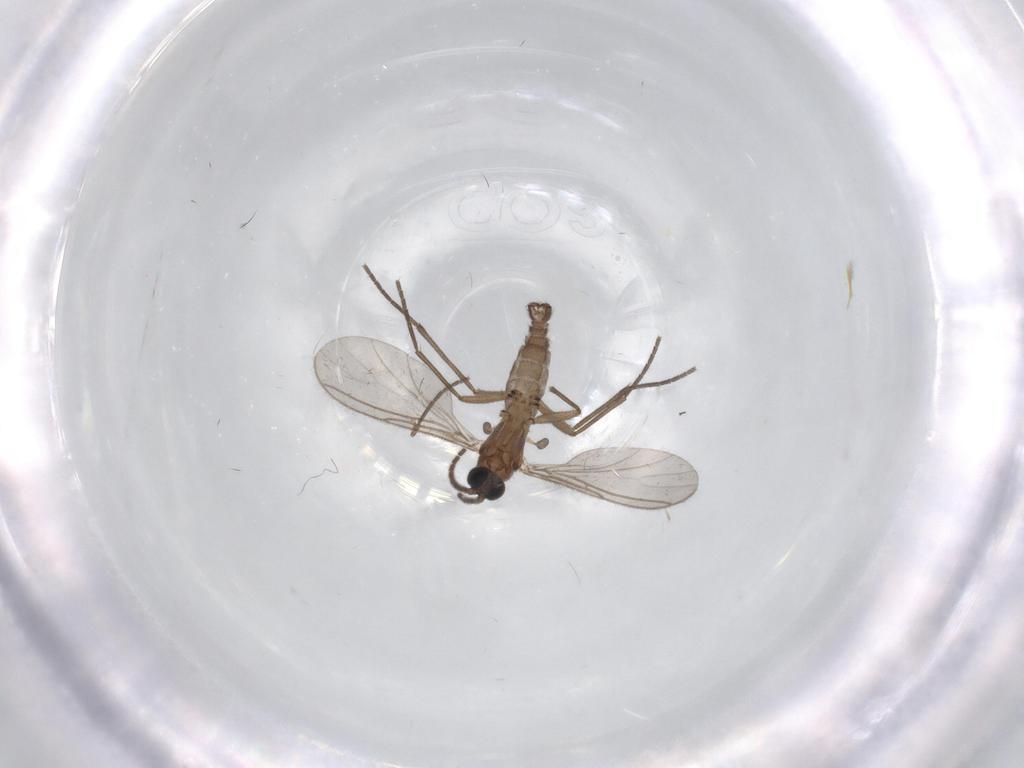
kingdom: Animalia
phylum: Arthropoda
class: Insecta
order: Diptera
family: Sciaridae
